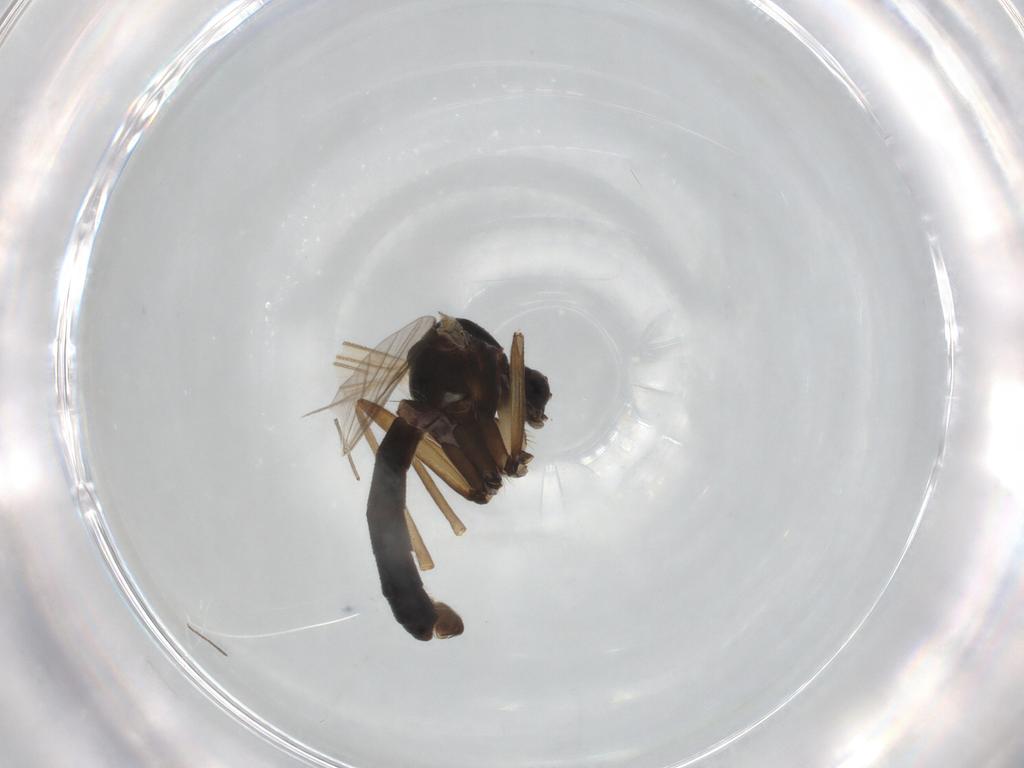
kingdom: Animalia
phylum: Arthropoda
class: Insecta
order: Diptera
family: Mycetophilidae
